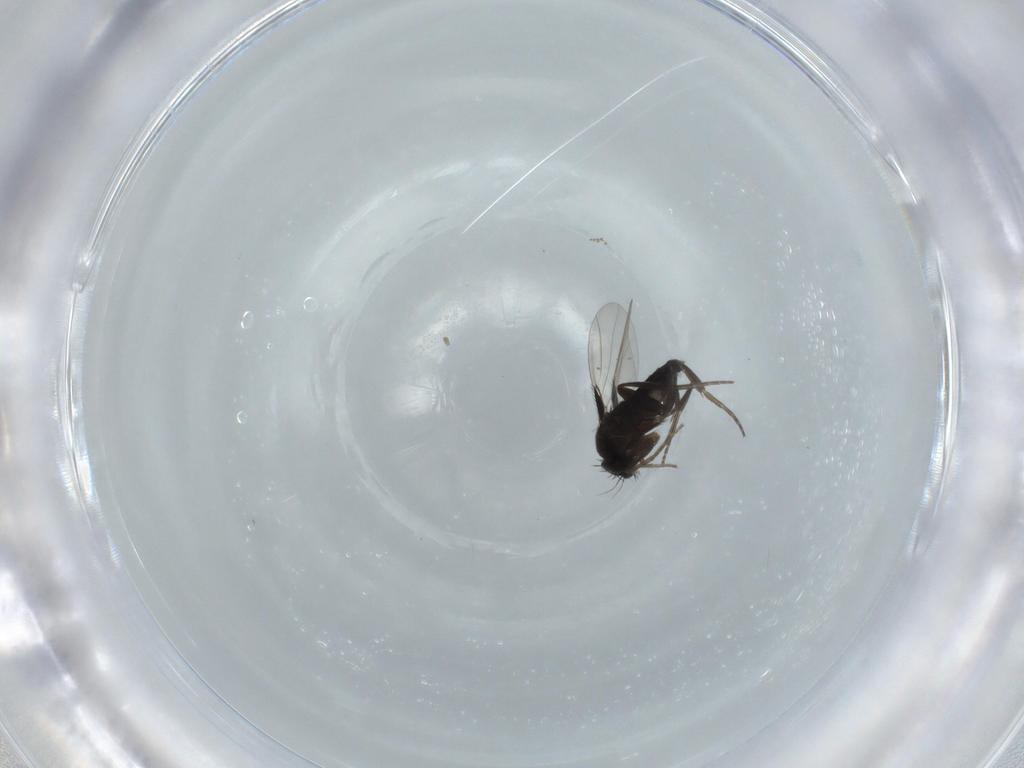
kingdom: Animalia
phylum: Arthropoda
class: Insecta
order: Diptera
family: Phoridae
